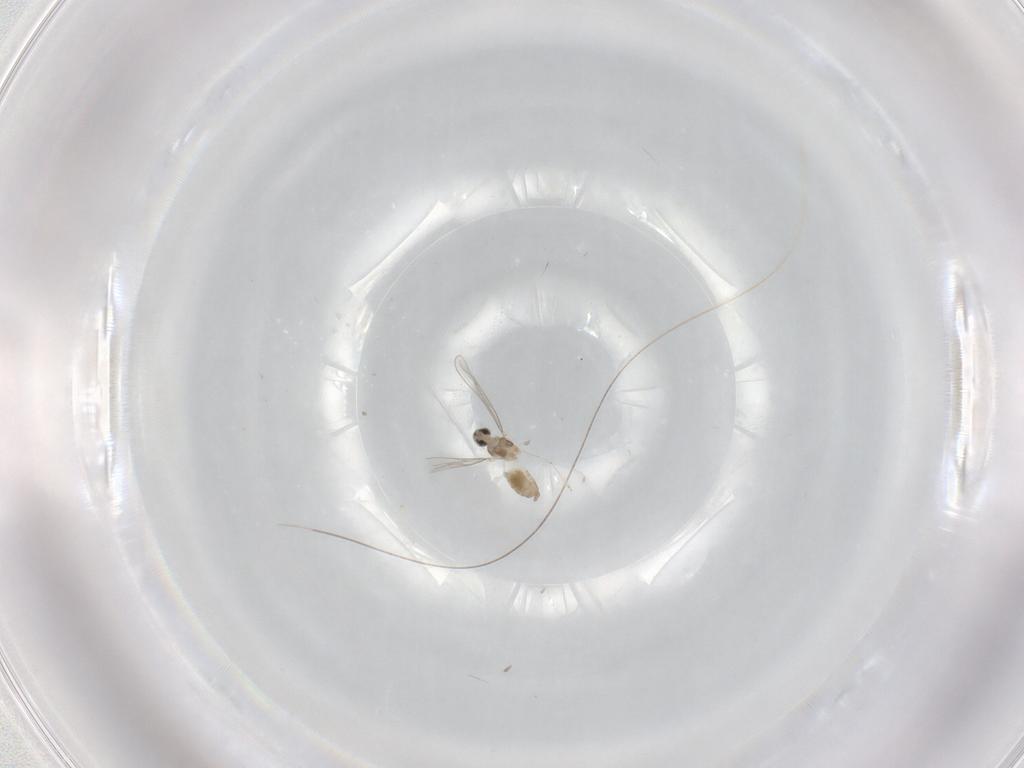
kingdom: Animalia
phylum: Arthropoda
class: Insecta
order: Diptera
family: Cecidomyiidae
